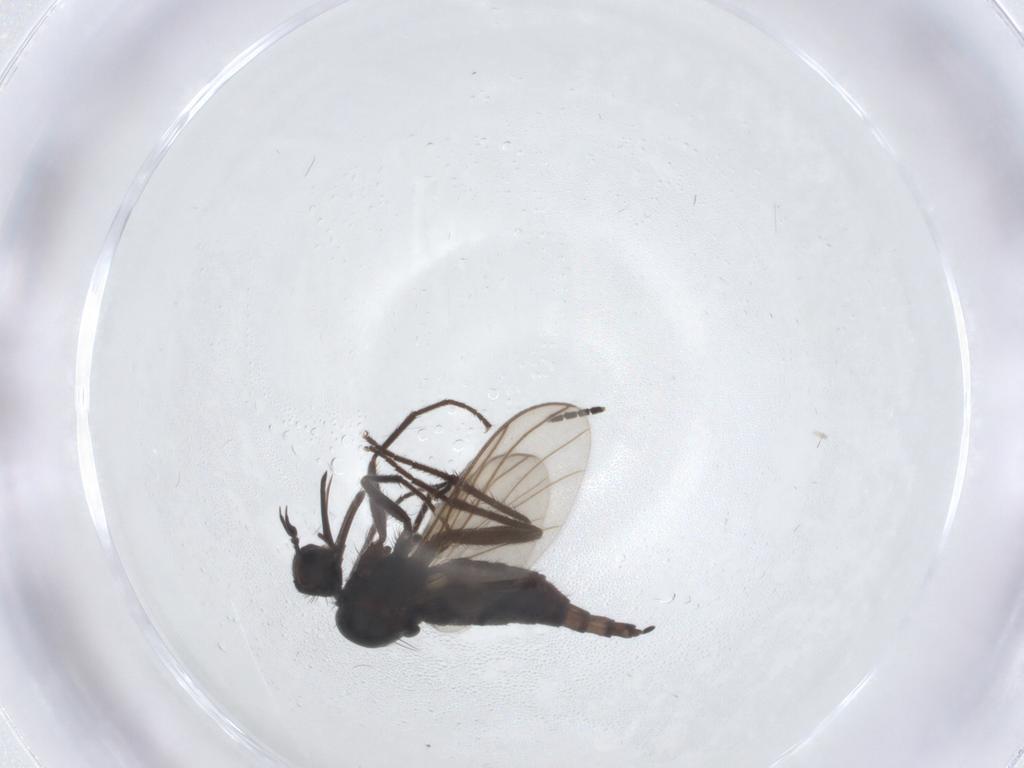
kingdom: Animalia
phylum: Arthropoda
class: Insecta
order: Diptera
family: Empididae
